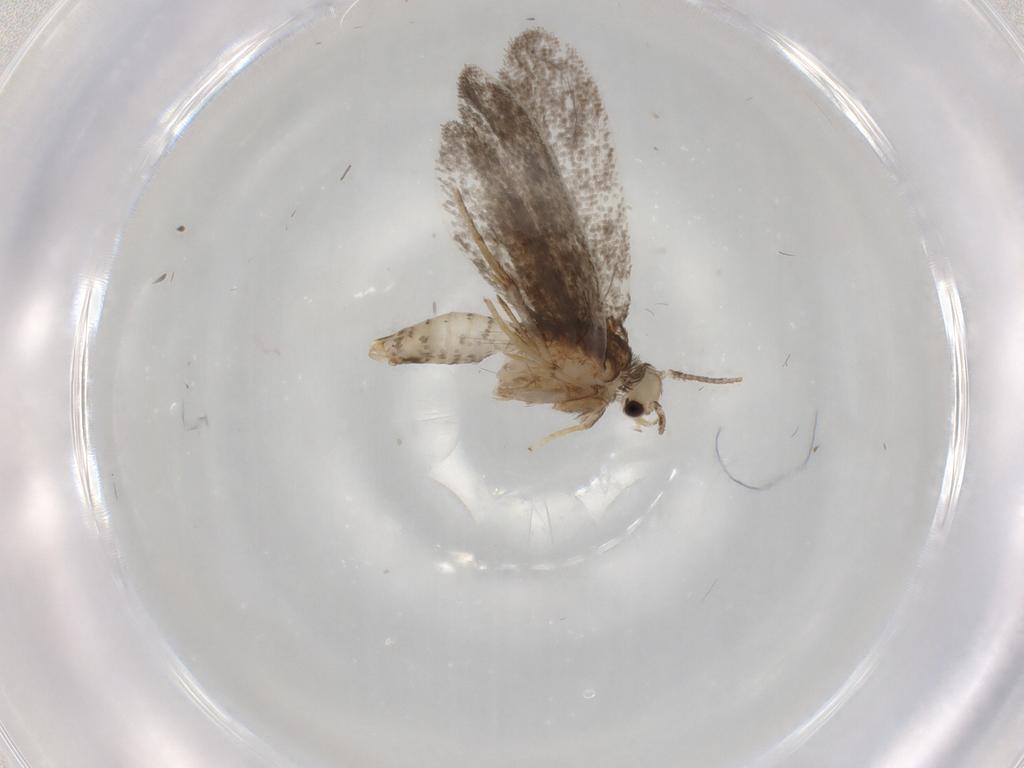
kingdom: Animalia
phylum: Arthropoda
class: Insecta
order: Lepidoptera
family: Psychidae
